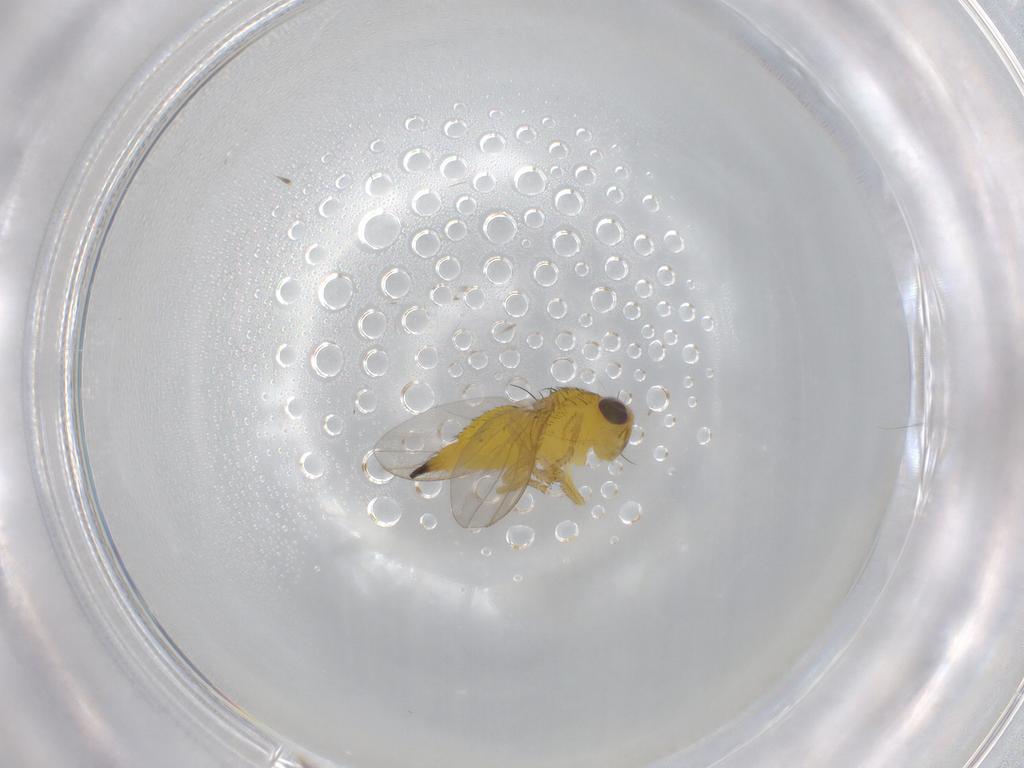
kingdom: Animalia
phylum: Arthropoda
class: Insecta
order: Diptera
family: Fergusoninidae
